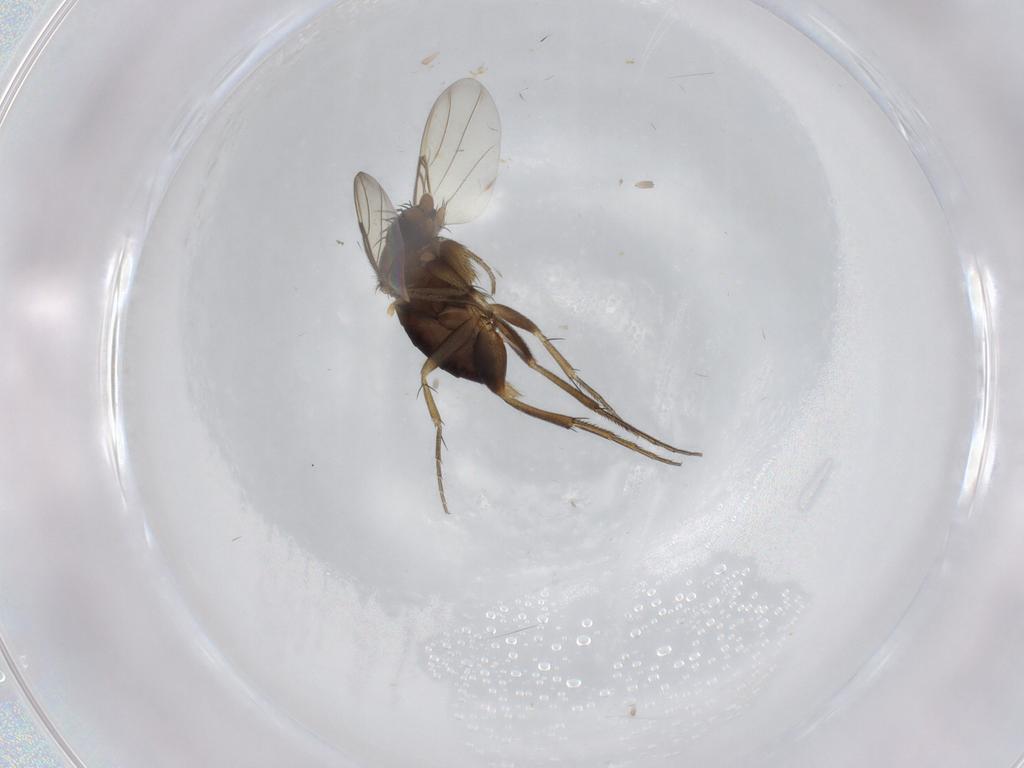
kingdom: Animalia
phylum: Arthropoda
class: Insecta
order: Diptera
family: Phoridae
